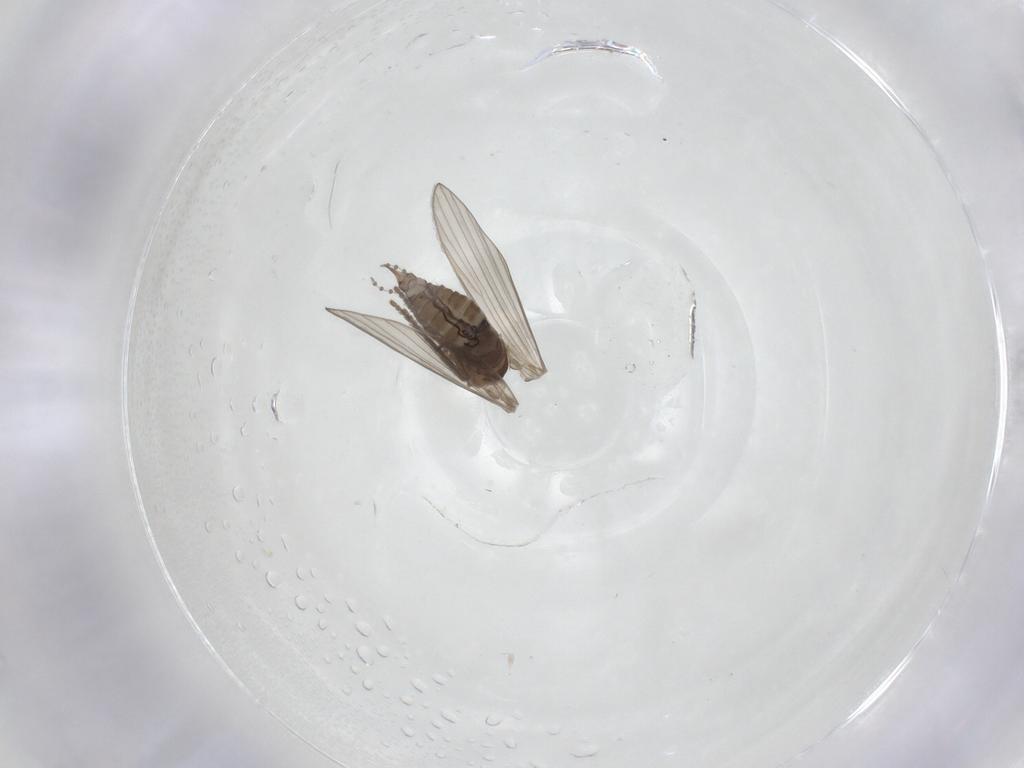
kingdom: Animalia
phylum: Arthropoda
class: Insecta
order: Diptera
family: Psychodidae
